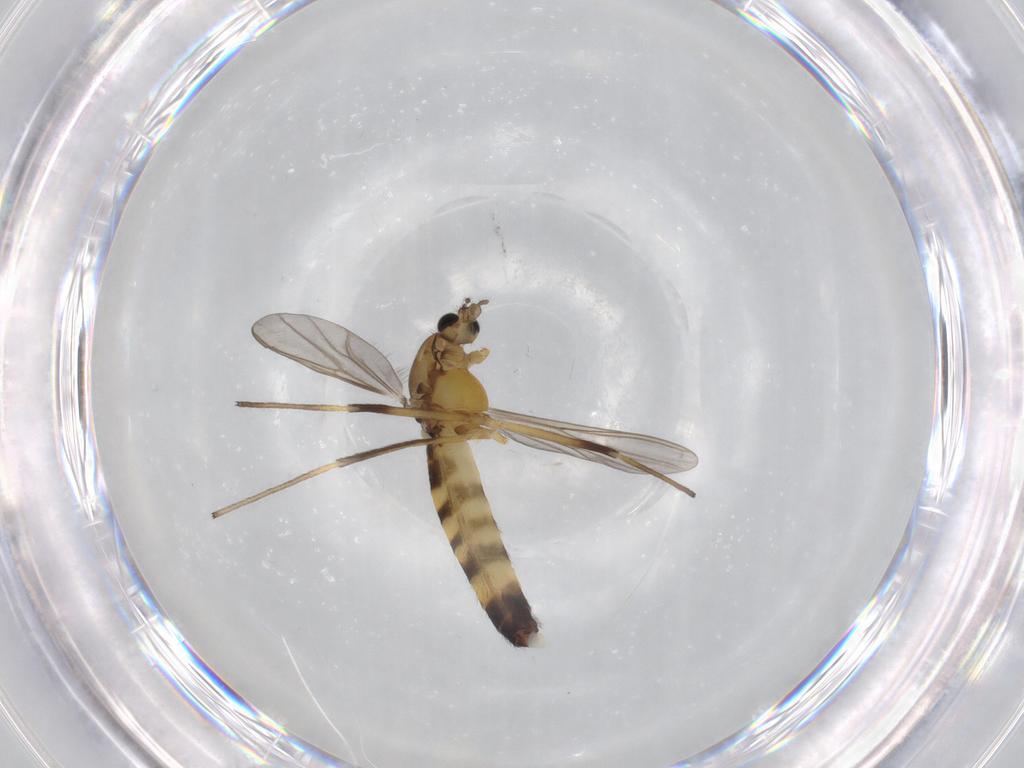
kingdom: Animalia
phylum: Arthropoda
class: Insecta
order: Diptera
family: Chironomidae
